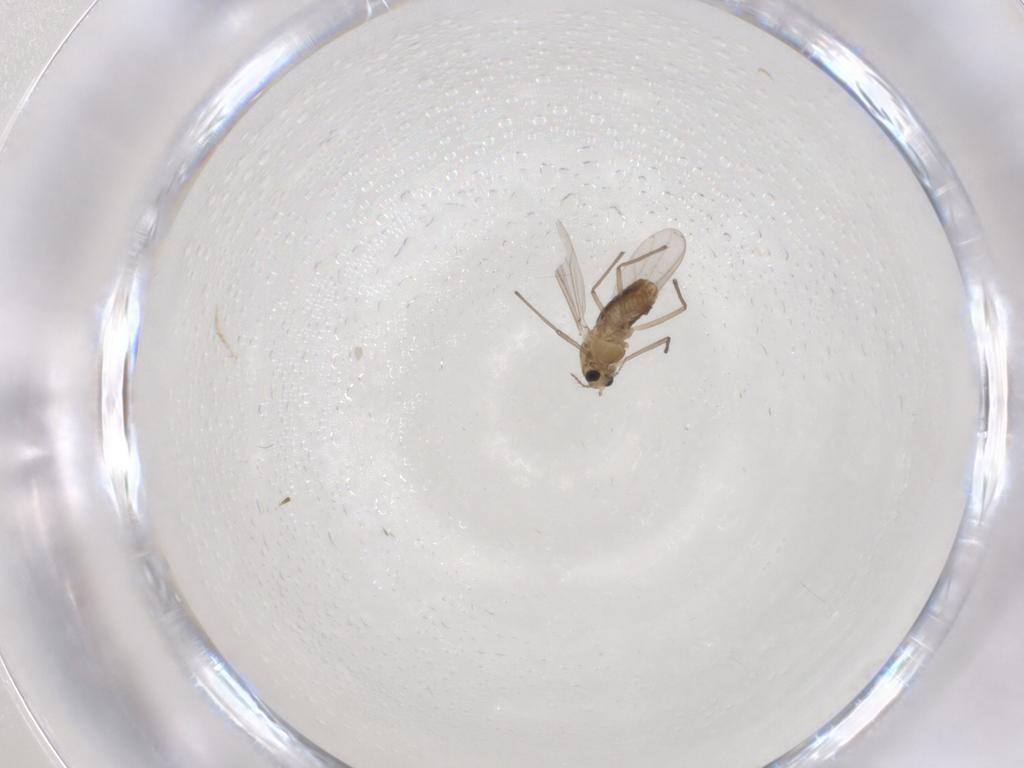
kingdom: Animalia
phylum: Arthropoda
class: Insecta
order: Diptera
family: Chironomidae
